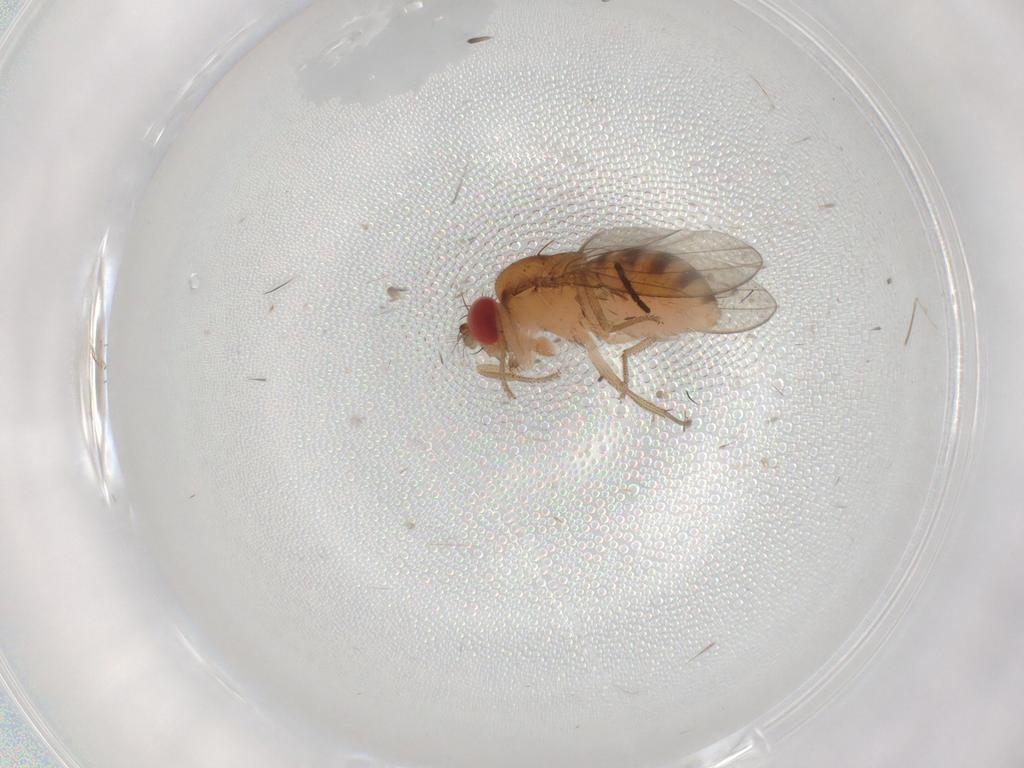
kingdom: Animalia
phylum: Arthropoda
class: Insecta
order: Diptera
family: Drosophilidae
